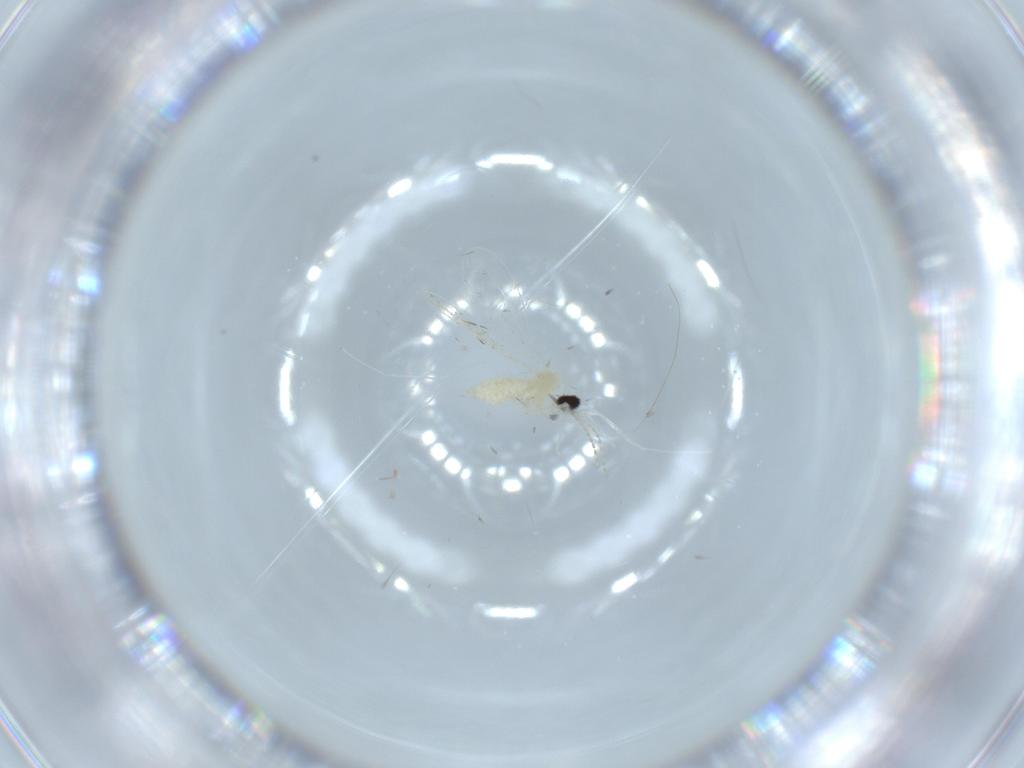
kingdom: Animalia
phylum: Arthropoda
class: Insecta
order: Diptera
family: Cecidomyiidae
